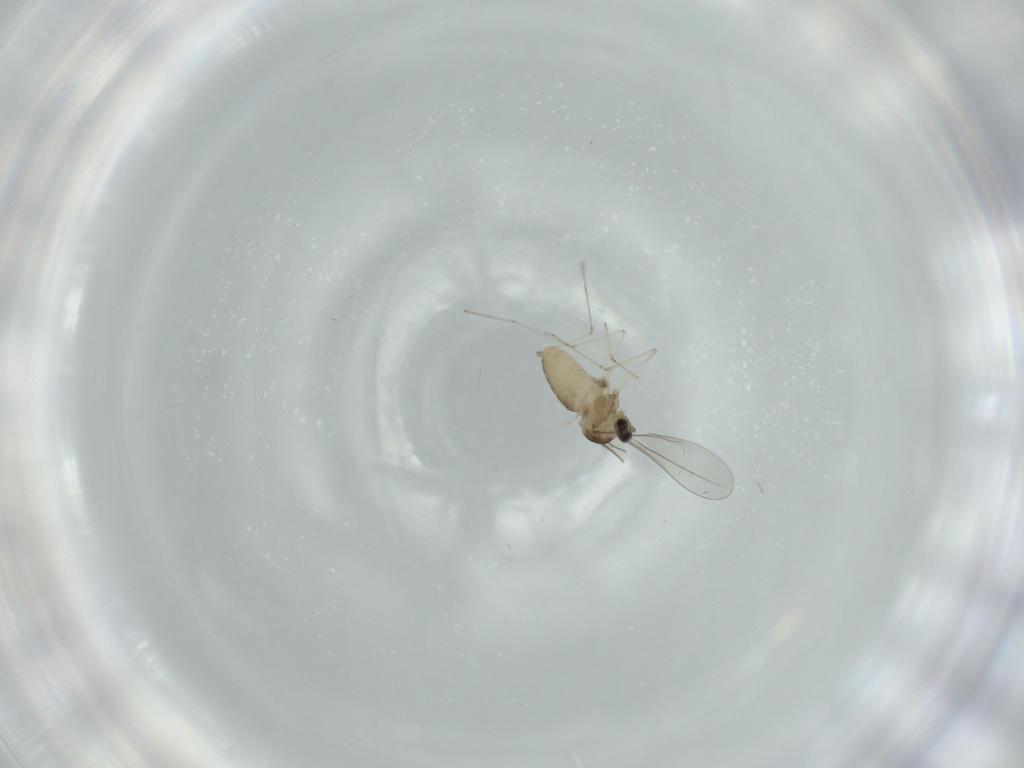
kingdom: Animalia
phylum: Arthropoda
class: Insecta
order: Diptera
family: Cecidomyiidae
